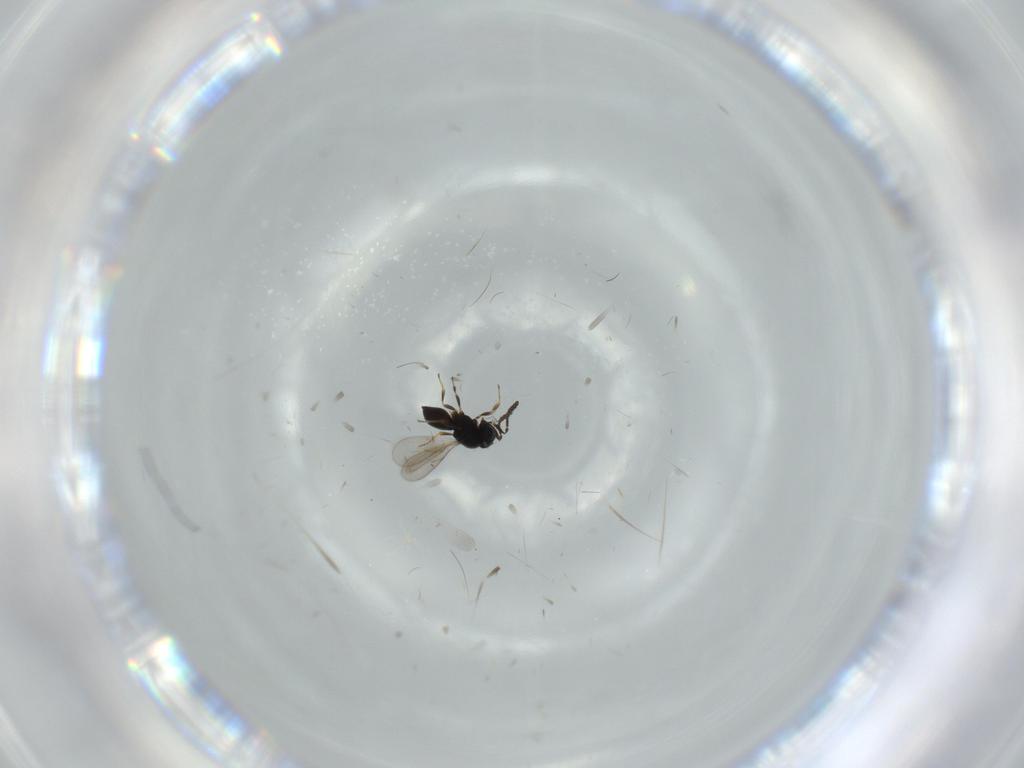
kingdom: Animalia
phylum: Arthropoda
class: Insecta
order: Hymenoptera
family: Scelionidae
